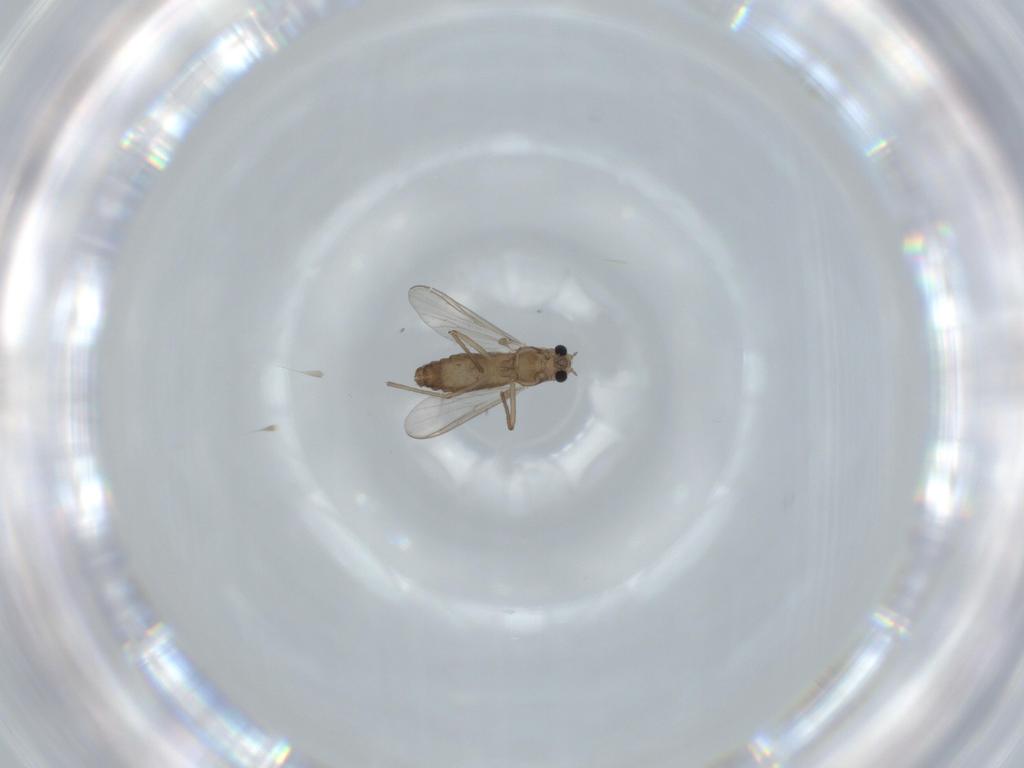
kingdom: Animalia
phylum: Arthropoda
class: Insecta
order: Diptera
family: Chironomidae
